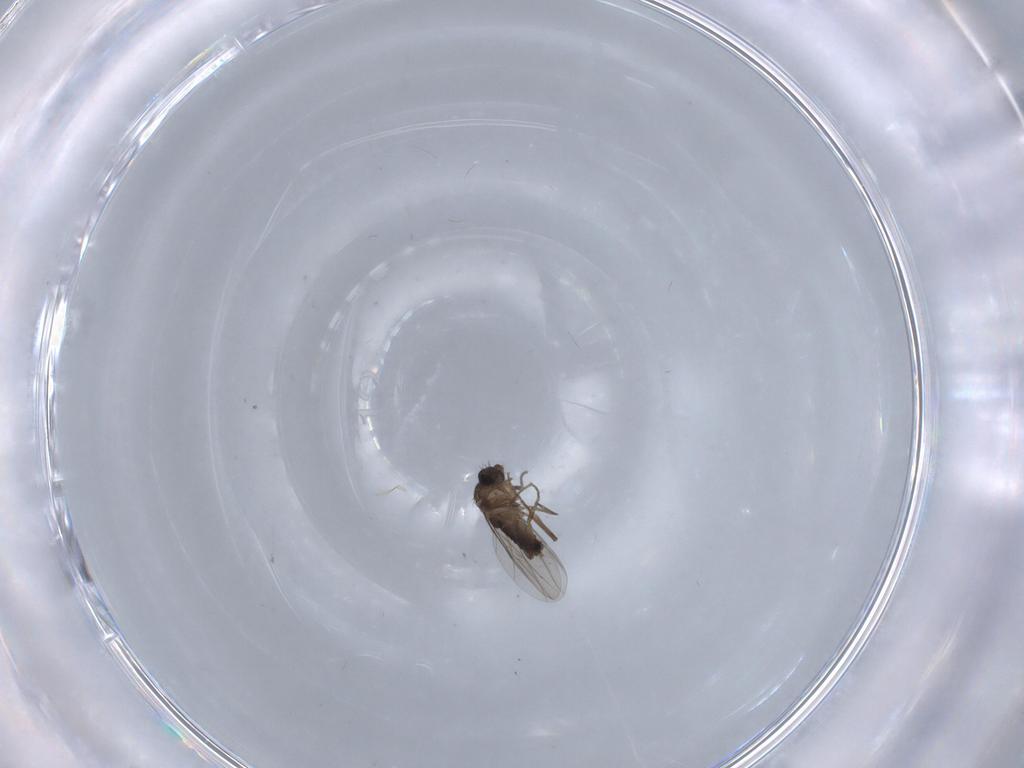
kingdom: Animalia
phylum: Arthropoda
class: Insecta
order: Diptera
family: Phoridae
